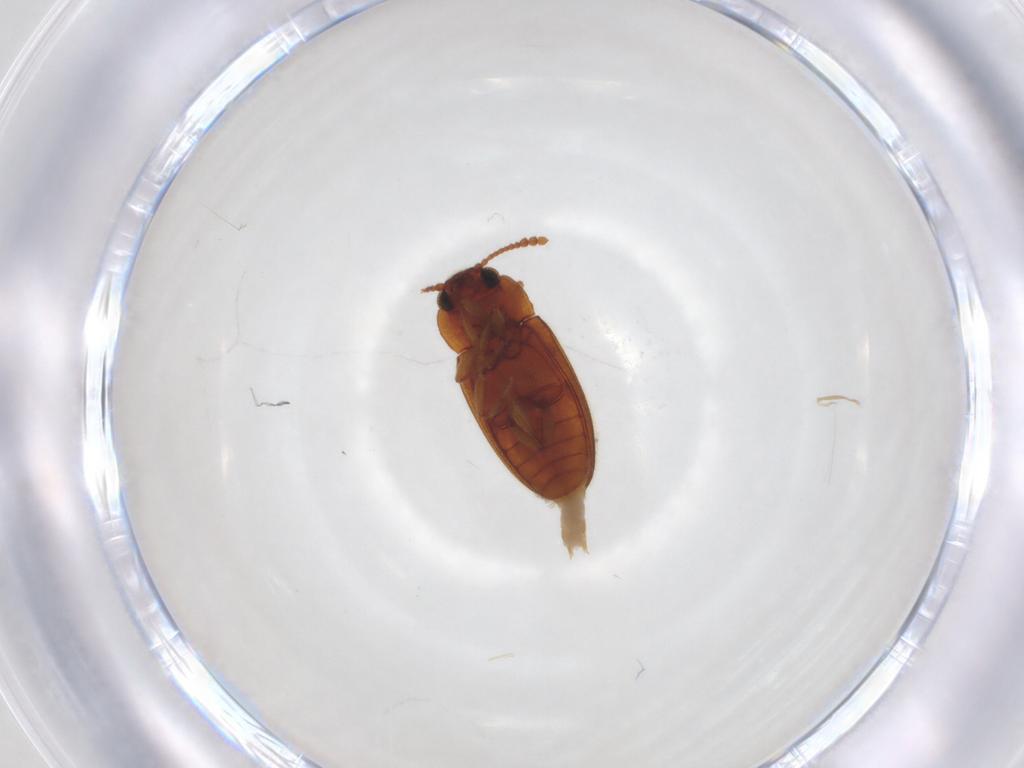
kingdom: Animalia
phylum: Arthropoda
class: Insecta
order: Coleoptera
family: Erotylidae
